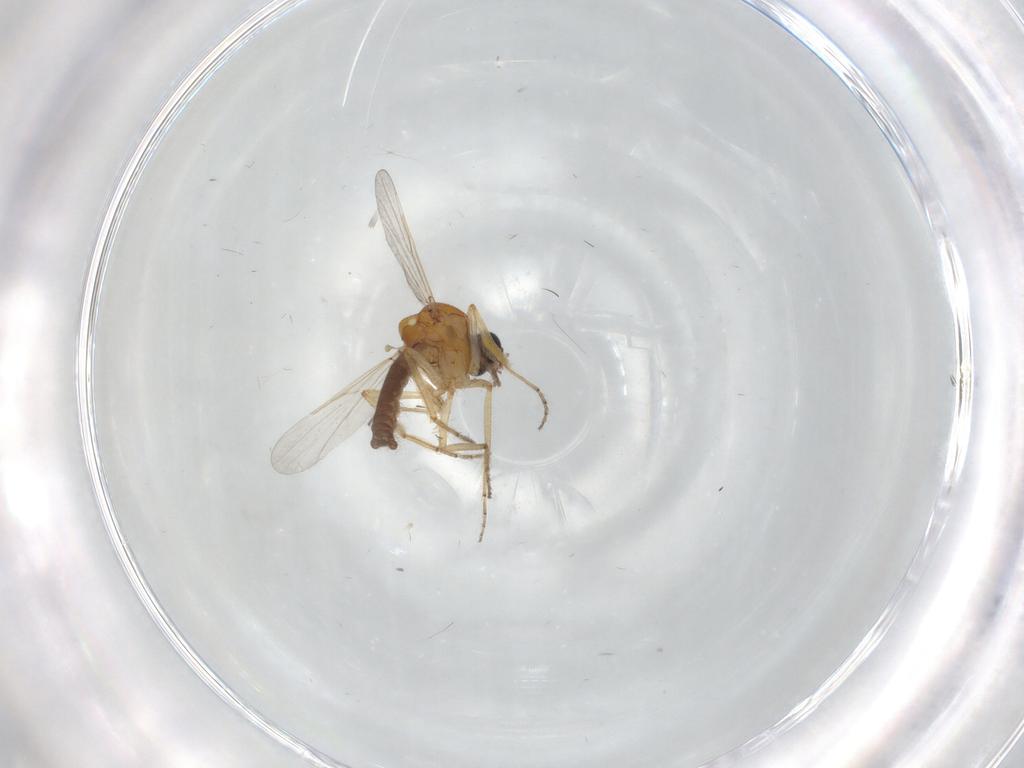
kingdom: Animalia
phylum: Arthropoda
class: Insecta
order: Diptera
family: Ceratopogonidae
